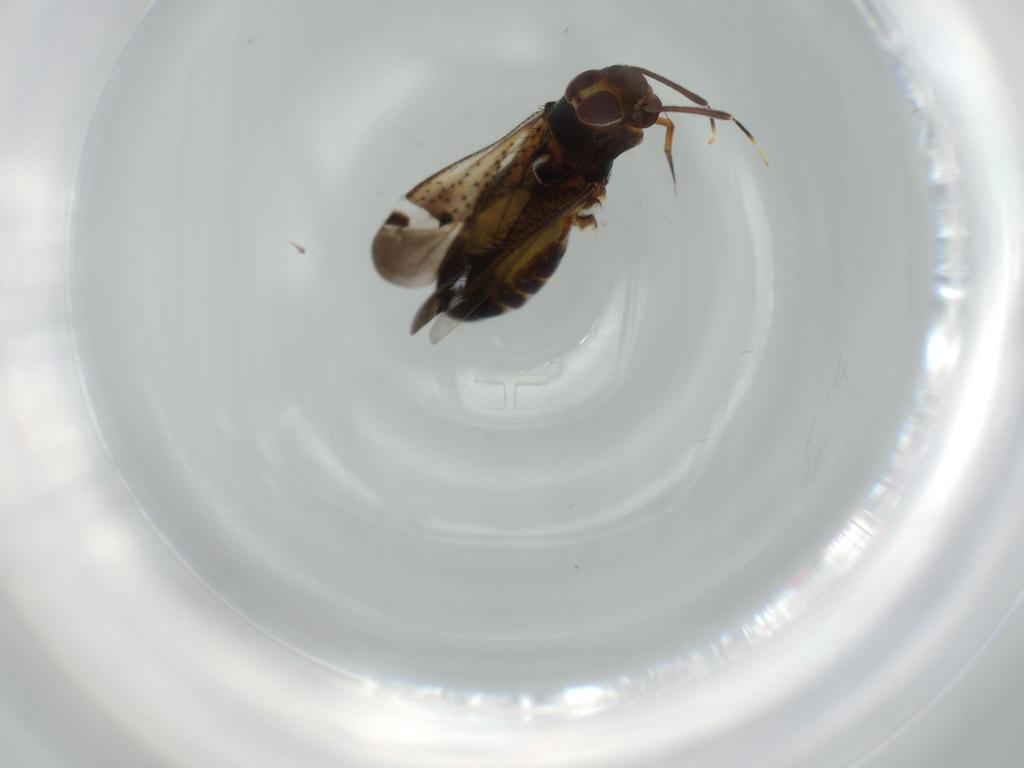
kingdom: Animalia
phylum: Arthropoda
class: Insecta
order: Hemiptera
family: Miridae
